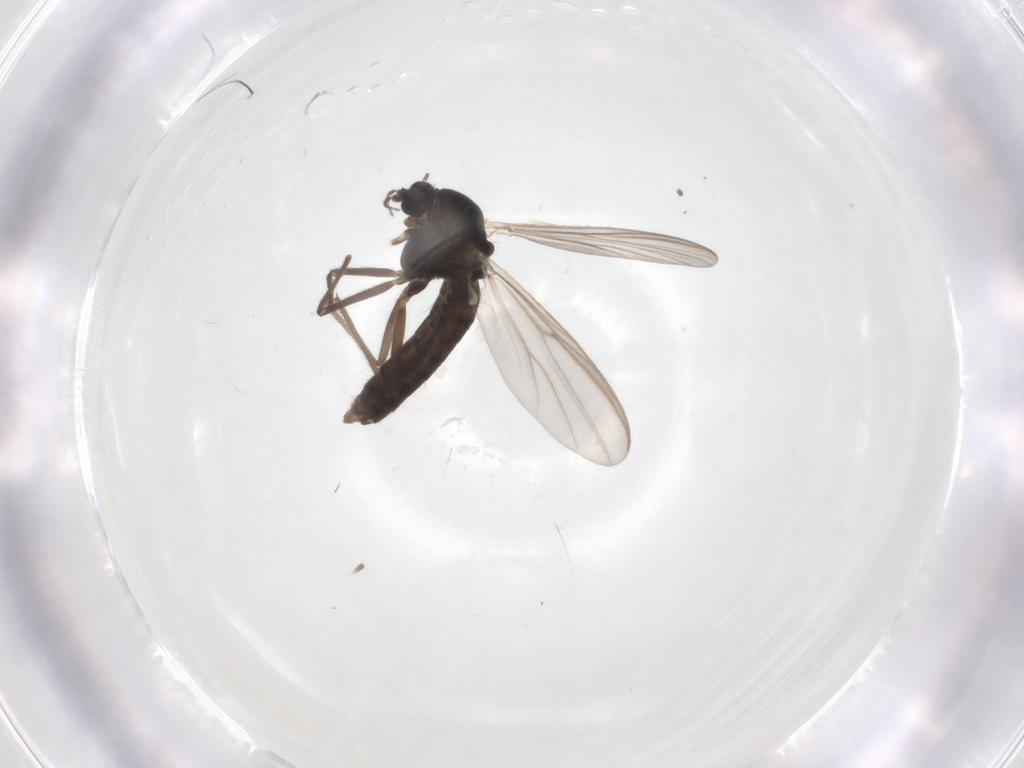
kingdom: Animalia
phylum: Arthropoda
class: Insecta
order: Diptera
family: Chironomidae
